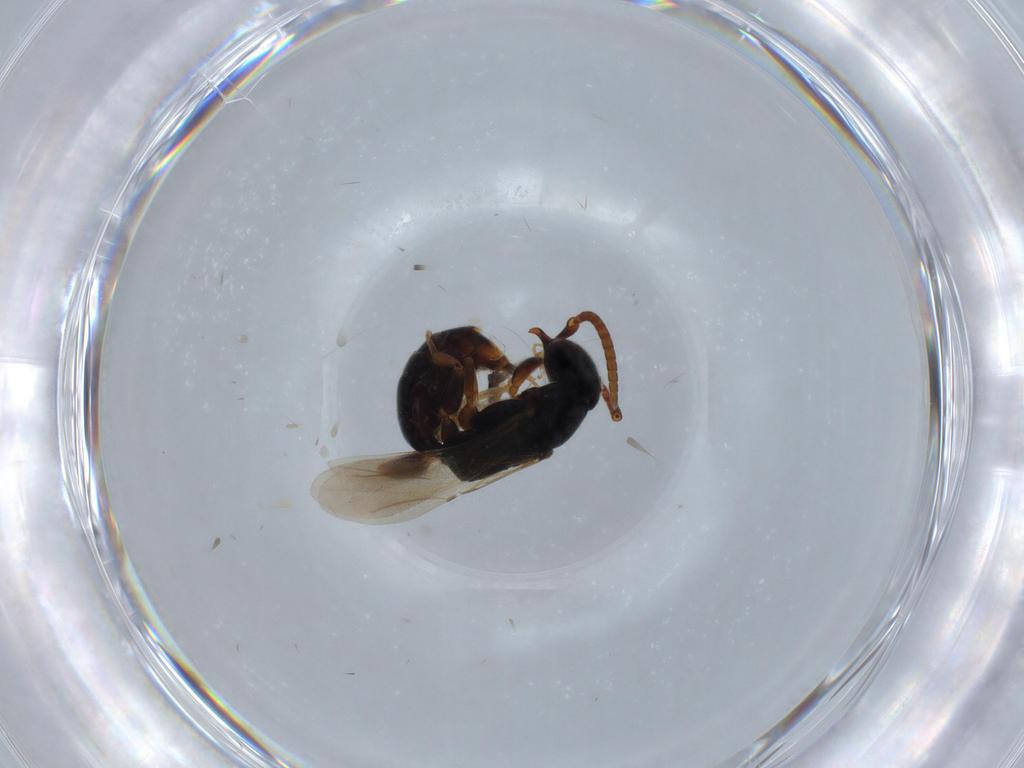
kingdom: Animalia
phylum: Arthropoda
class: Insecta
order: Hymenoptera
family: Bethylidae
